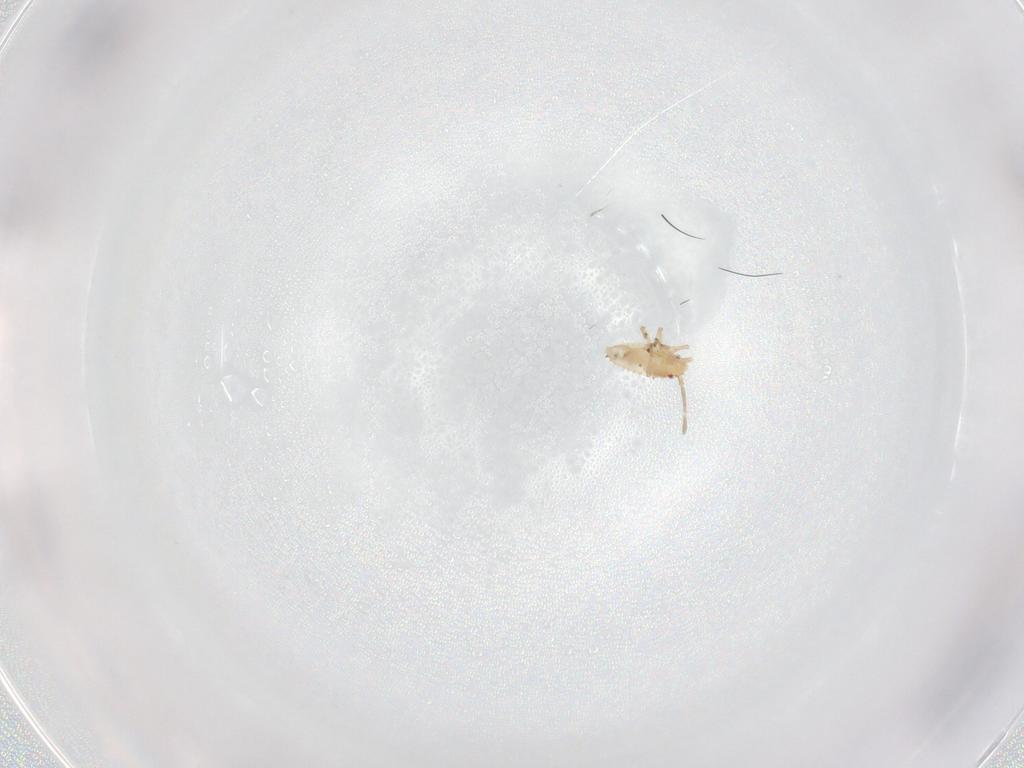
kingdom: Animalia
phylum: Arthropoda
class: Insecta
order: Hemiptera
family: Tingidae
